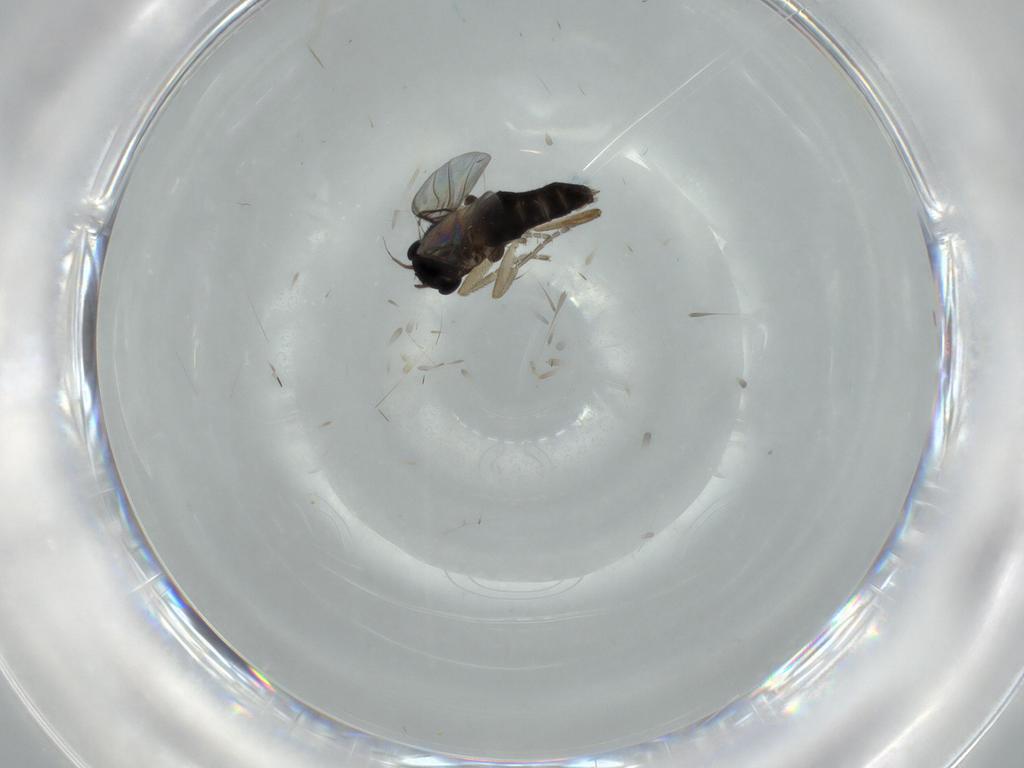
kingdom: Animalia
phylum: Arthropoda
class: Insecta
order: Diptera
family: Phoridae
